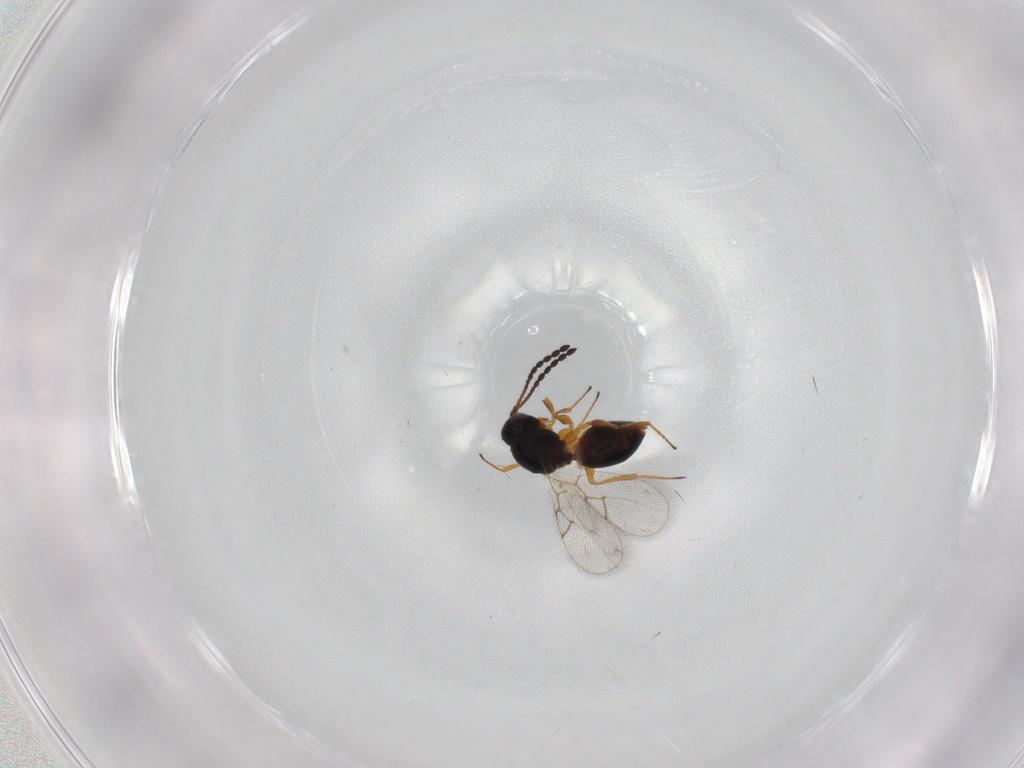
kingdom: Animalia
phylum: Arthropoda
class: Insecta
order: Hymenoptera
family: Figitidae
